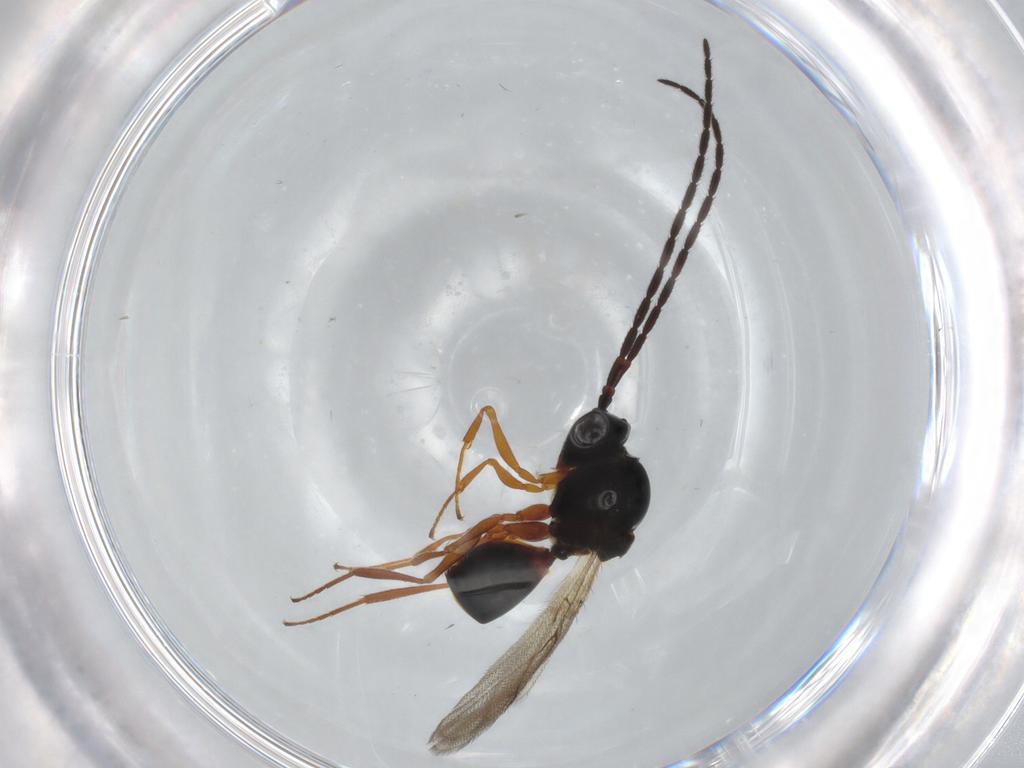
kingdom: Animalia
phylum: Arthropoda
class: Insecta
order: Hymenoptera
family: Figitidae
